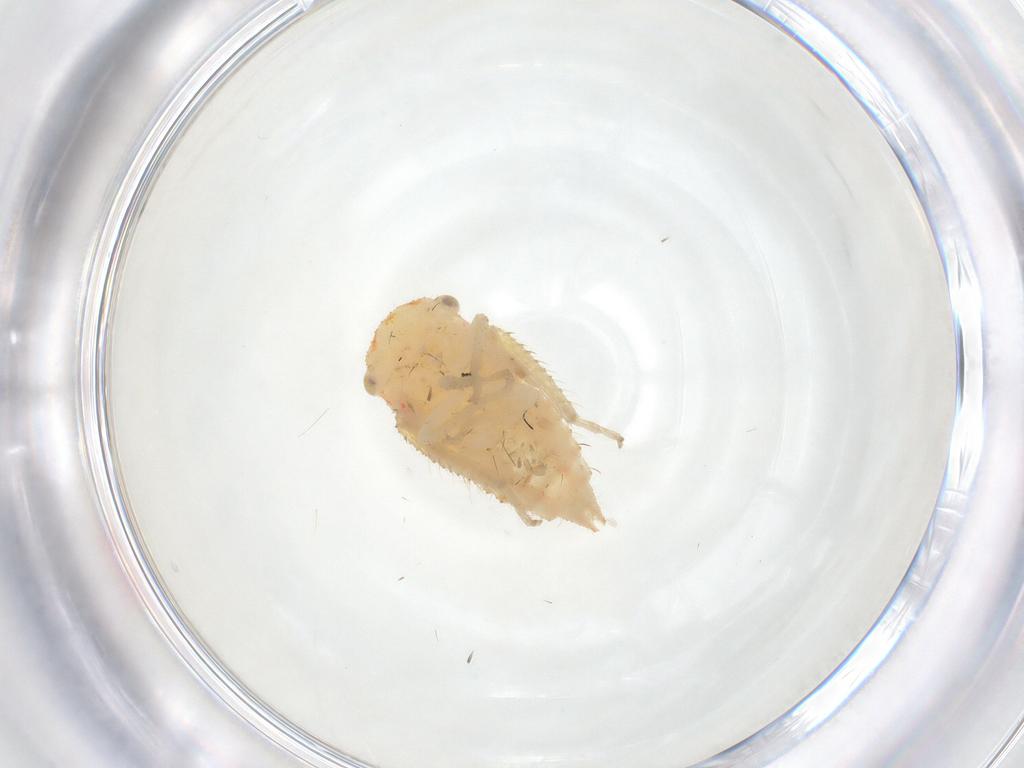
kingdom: Animalia
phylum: Arthropoda
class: Insecta
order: Hemiptera
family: Cicadellidae
